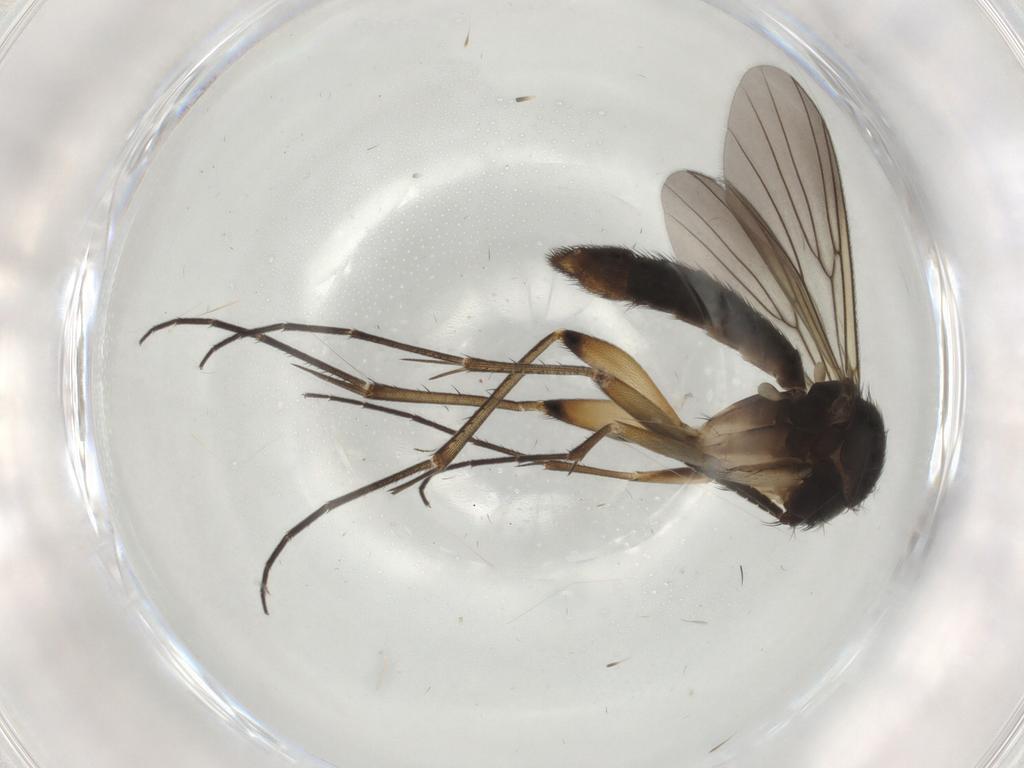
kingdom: Animalia
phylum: Arthropoda
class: Insecta
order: Diptera
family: Mycetophilidae
